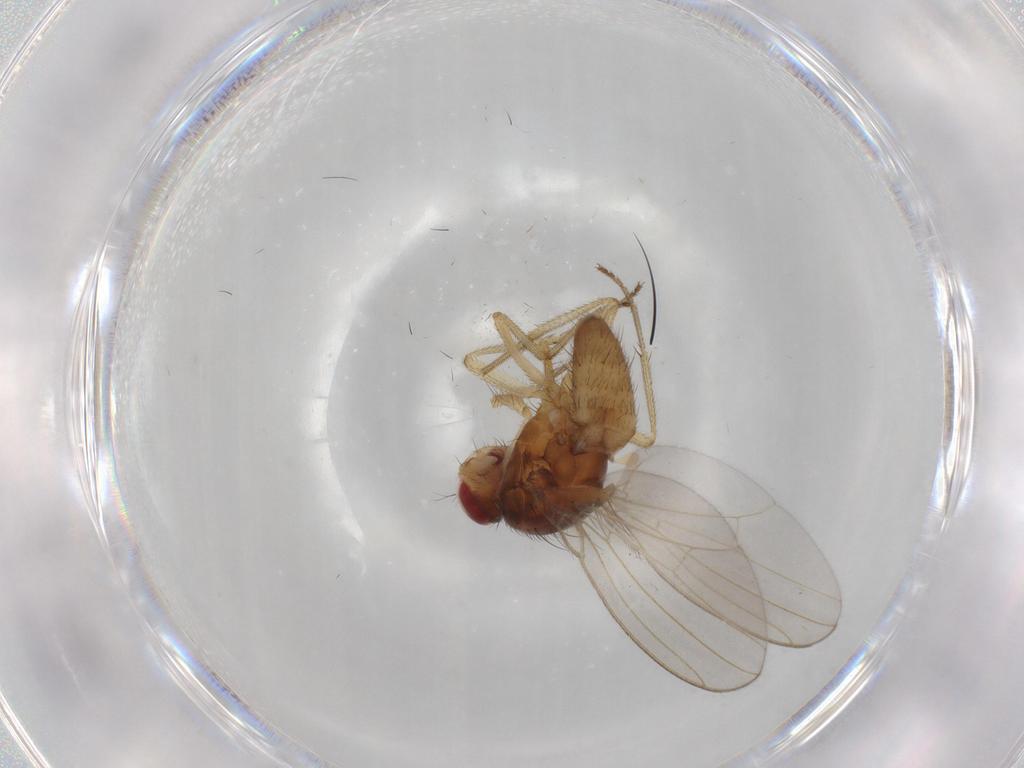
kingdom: Animalia
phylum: Arthropoda
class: Insecta
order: Diptera
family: Drosophilidae
